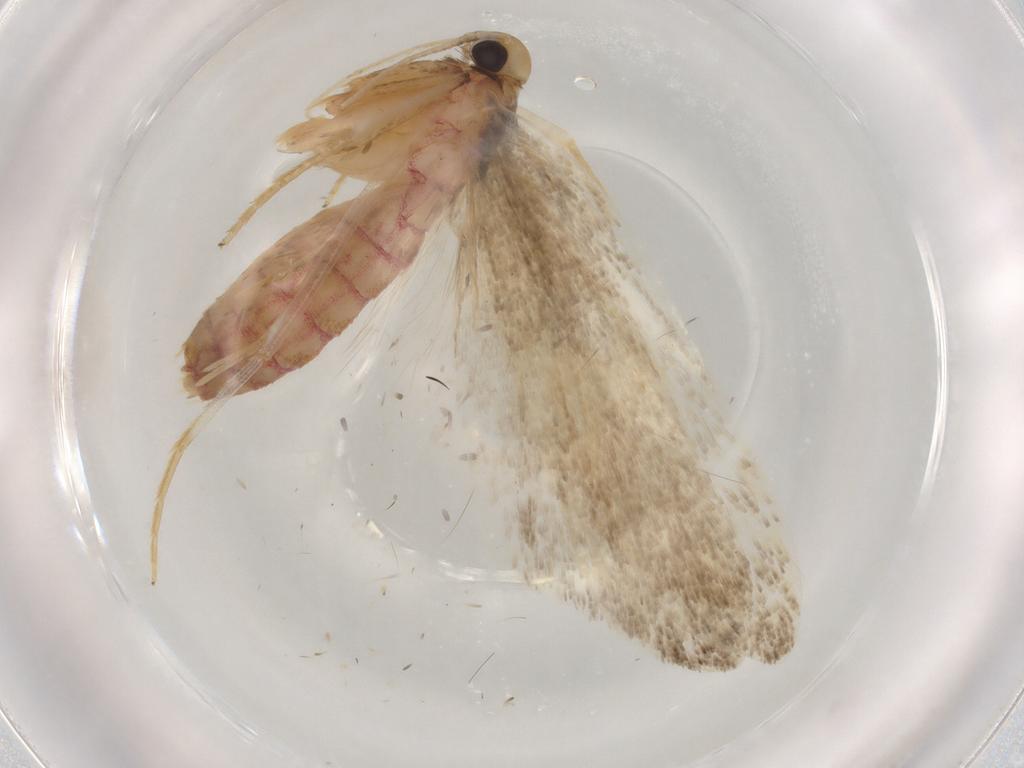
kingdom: Animalia
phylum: Arthropoda
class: Insecta
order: Lepidoptera
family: Lecithoceridae
